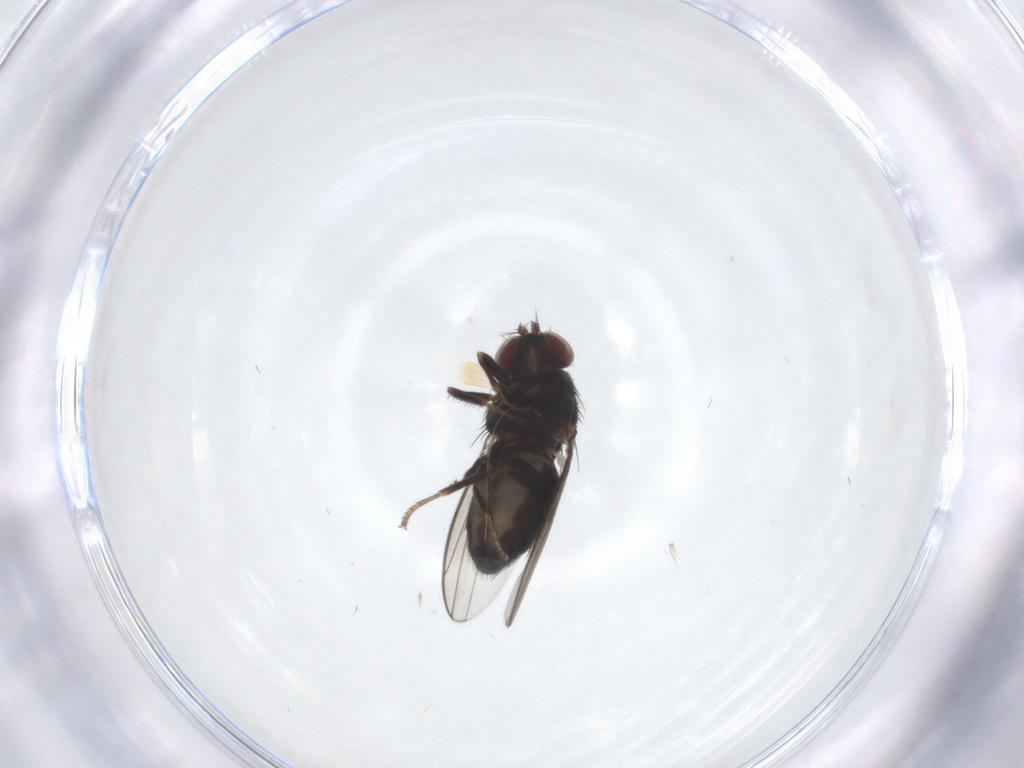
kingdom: Animalia
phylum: Arthropoda
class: Insecta
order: Diptera
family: Ephydridae
